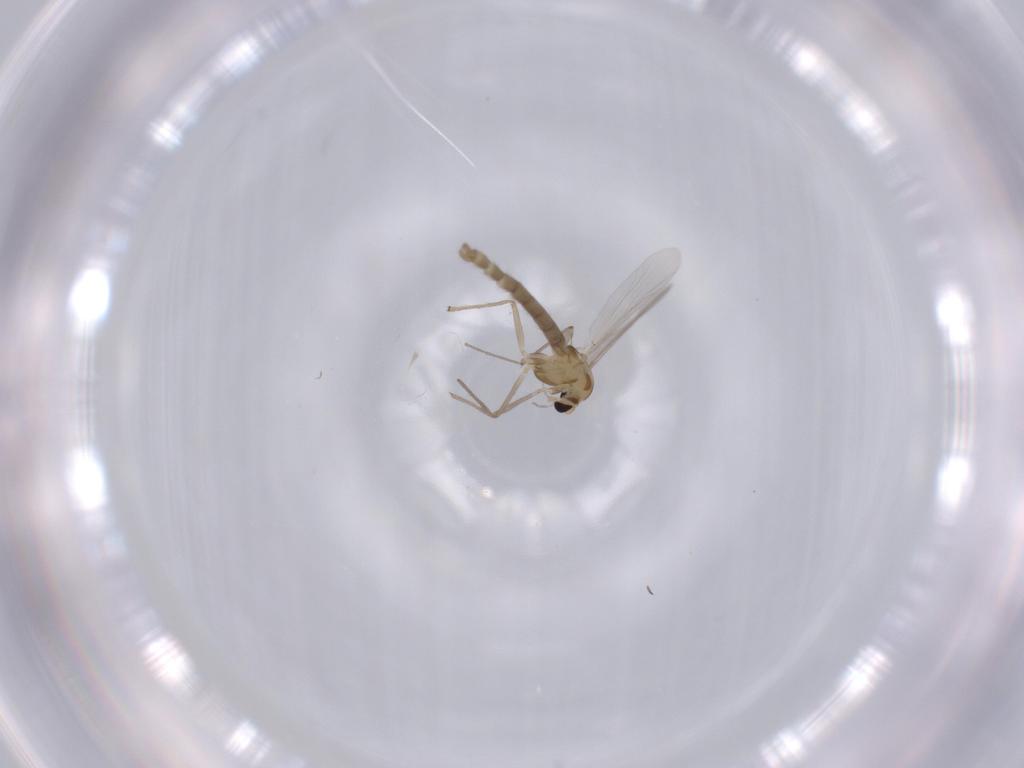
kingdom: Animalia
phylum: Arthropoda
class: Insecta
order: Diptera
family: Chironomidae
